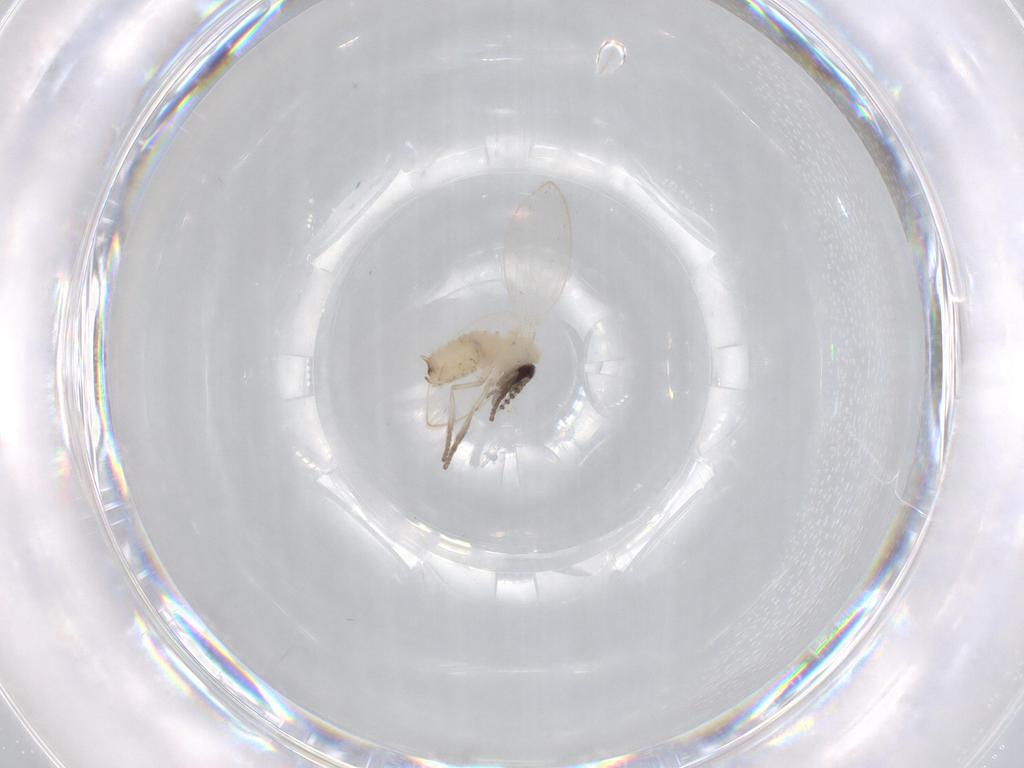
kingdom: Animalia
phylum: Arthropoda
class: Insecta
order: Diptera
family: Psychodidae
